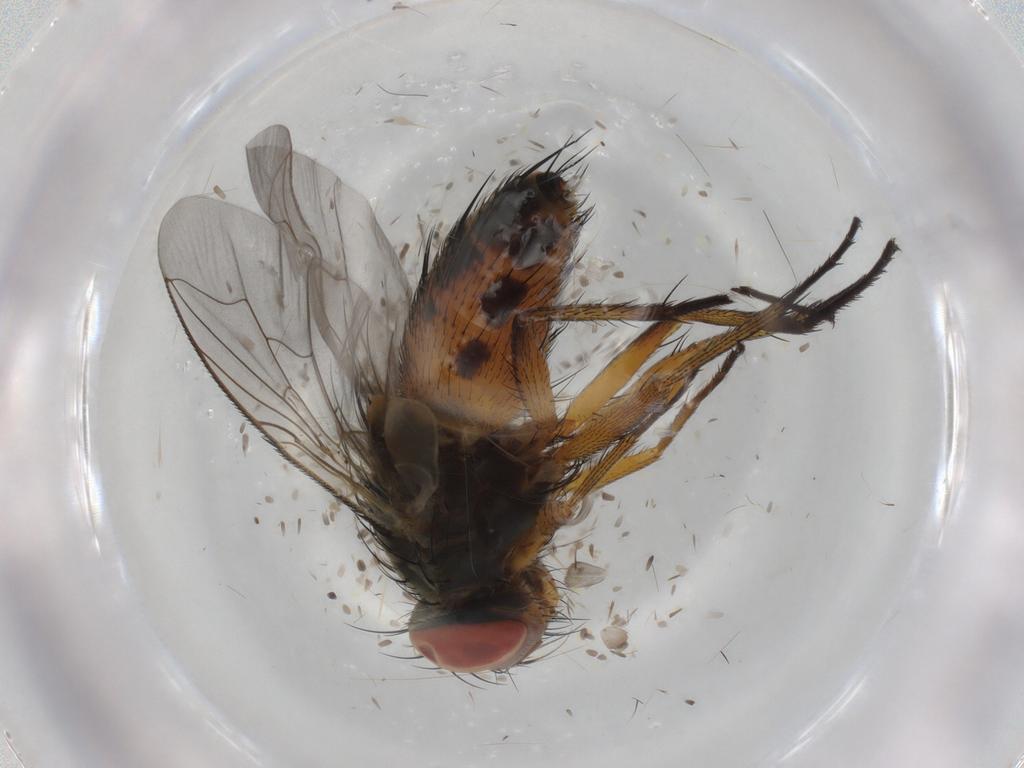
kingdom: Animalia
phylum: Arthropoda
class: Insecta
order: Diptera
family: Sarcophagidae
